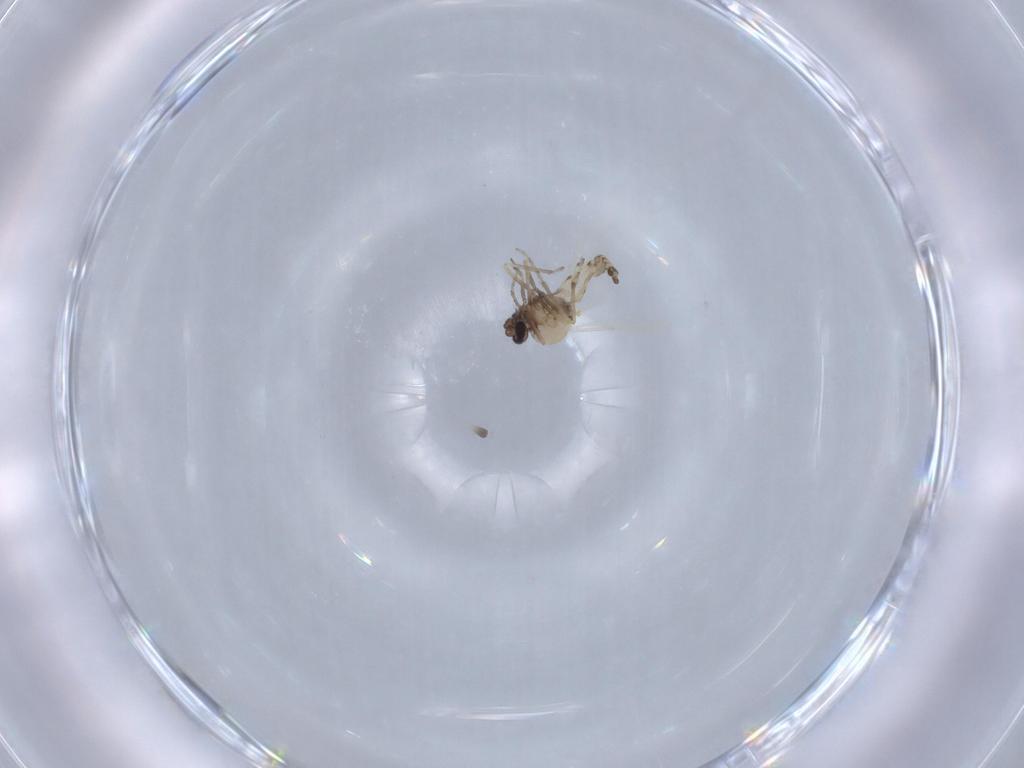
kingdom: Animalia
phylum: Arthropoda
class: Insecta
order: Diptera
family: Ceratopogonidae
